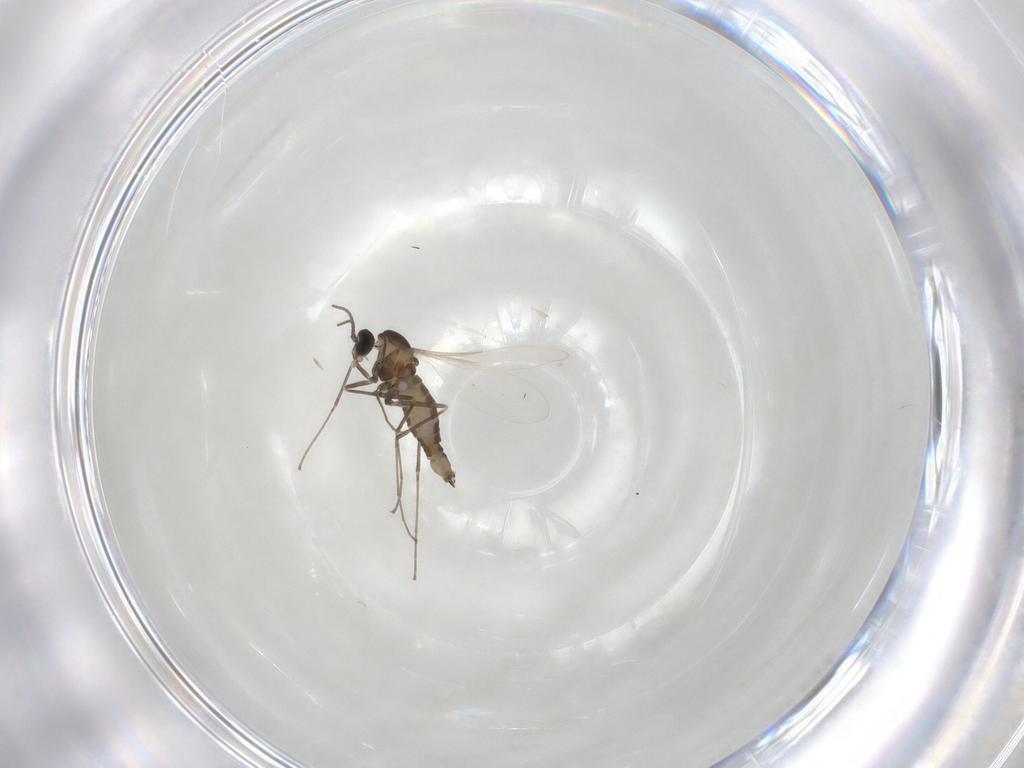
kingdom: Animalia
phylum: Arthropoda
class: Insecta
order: Diptera
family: Cecidomyiidae
